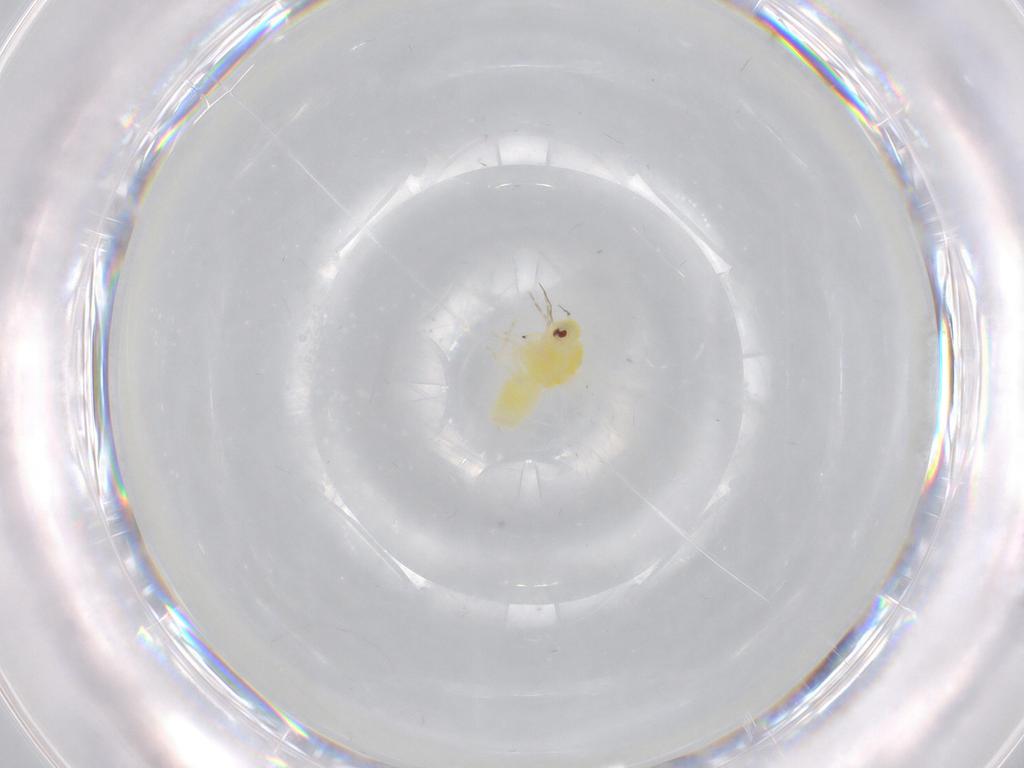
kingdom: Animalia
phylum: Arthropoda
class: Insecta
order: Hemiptera
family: Aleyrodidae
